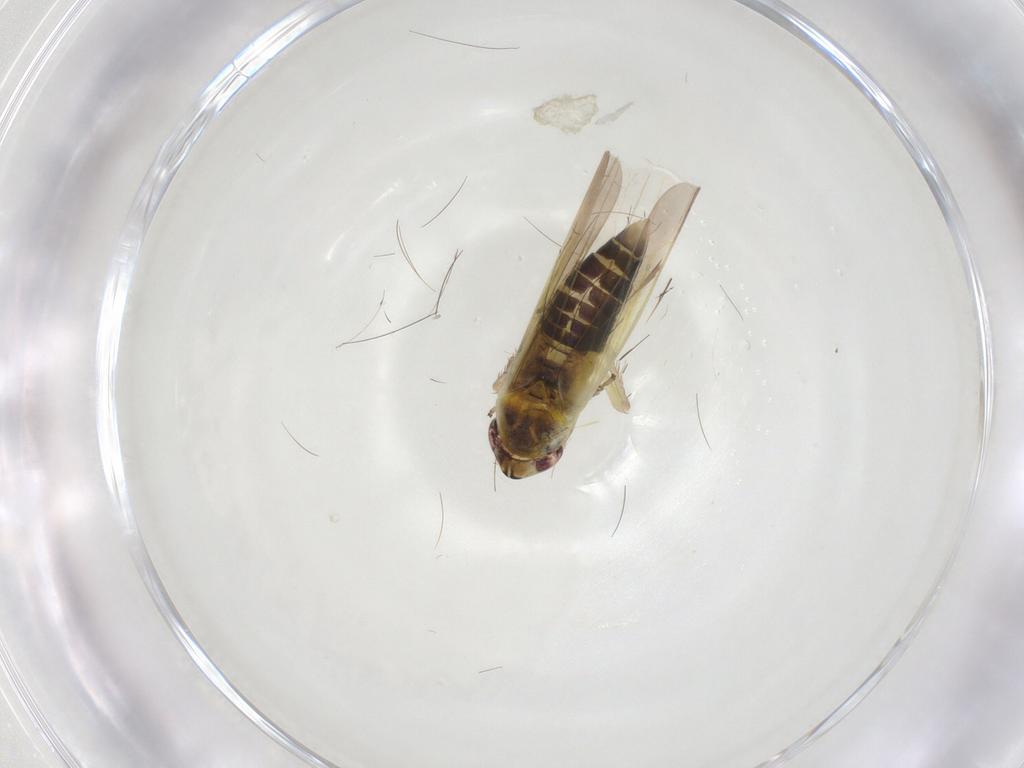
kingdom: Animalia
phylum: Arthropoda
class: Insecta
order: Hemiptera
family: Cicadellidae
